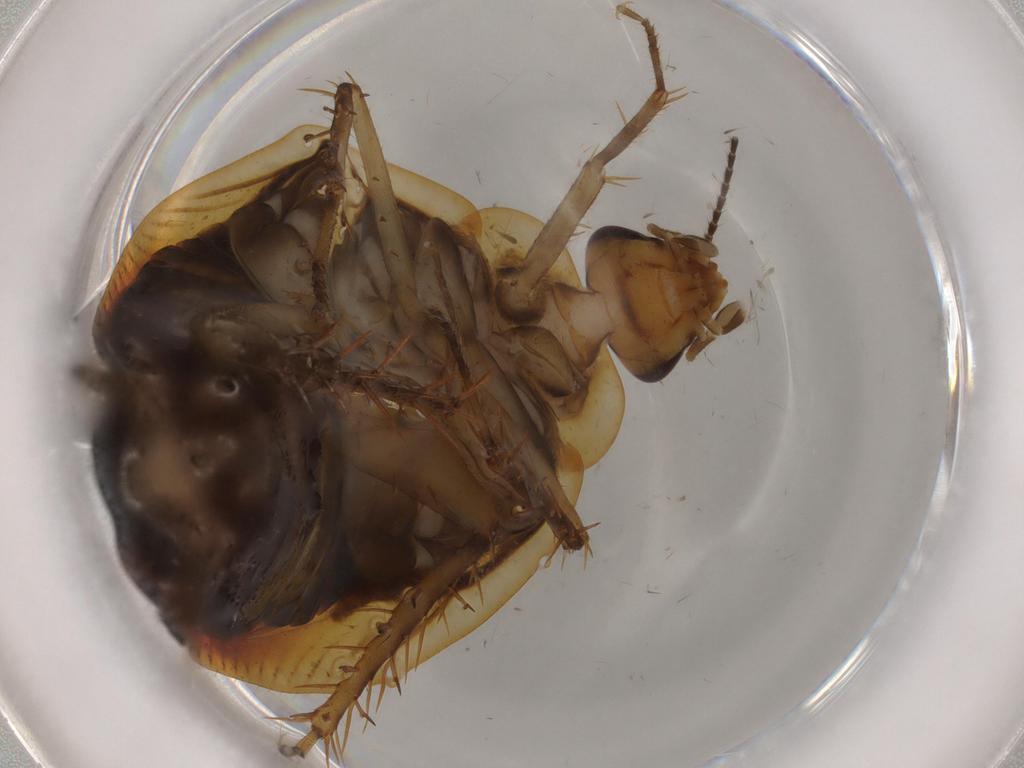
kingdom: Animalia
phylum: Arthropoda
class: Insecta
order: Blattodea
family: Ectobiidae
